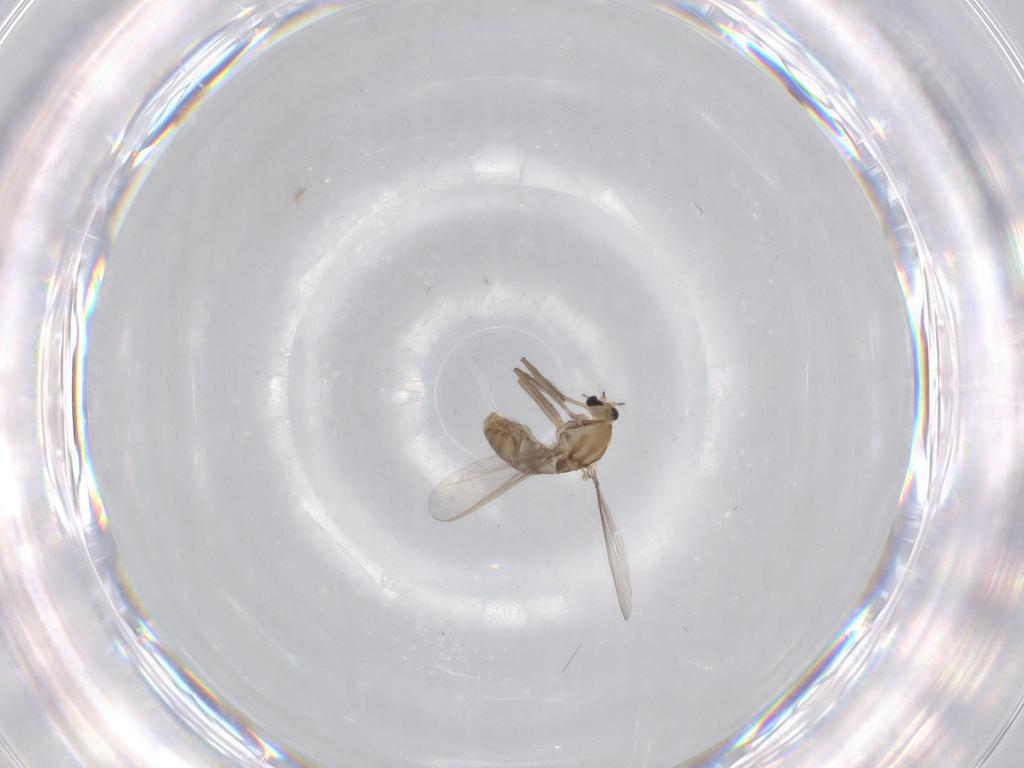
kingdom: Animalia
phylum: Arthropoda
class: Insecta
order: Diptera
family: Chironomidae
